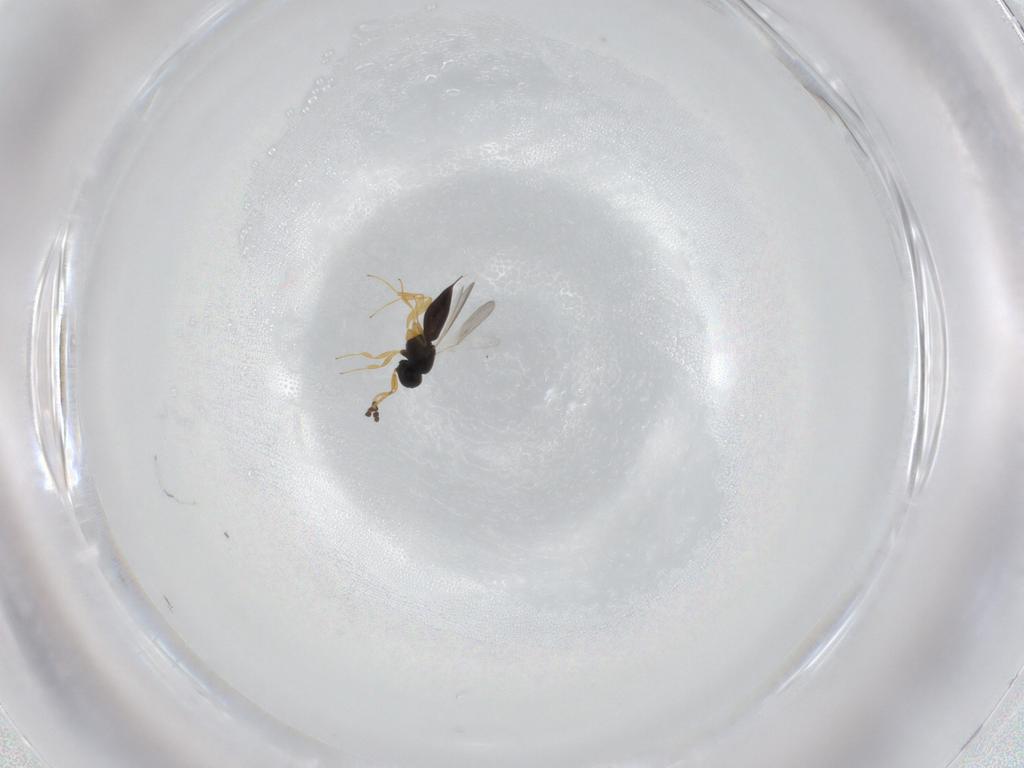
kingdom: Animalia
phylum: Arthropoda
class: Insecta
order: Hymenoptera
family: Scelionidae
